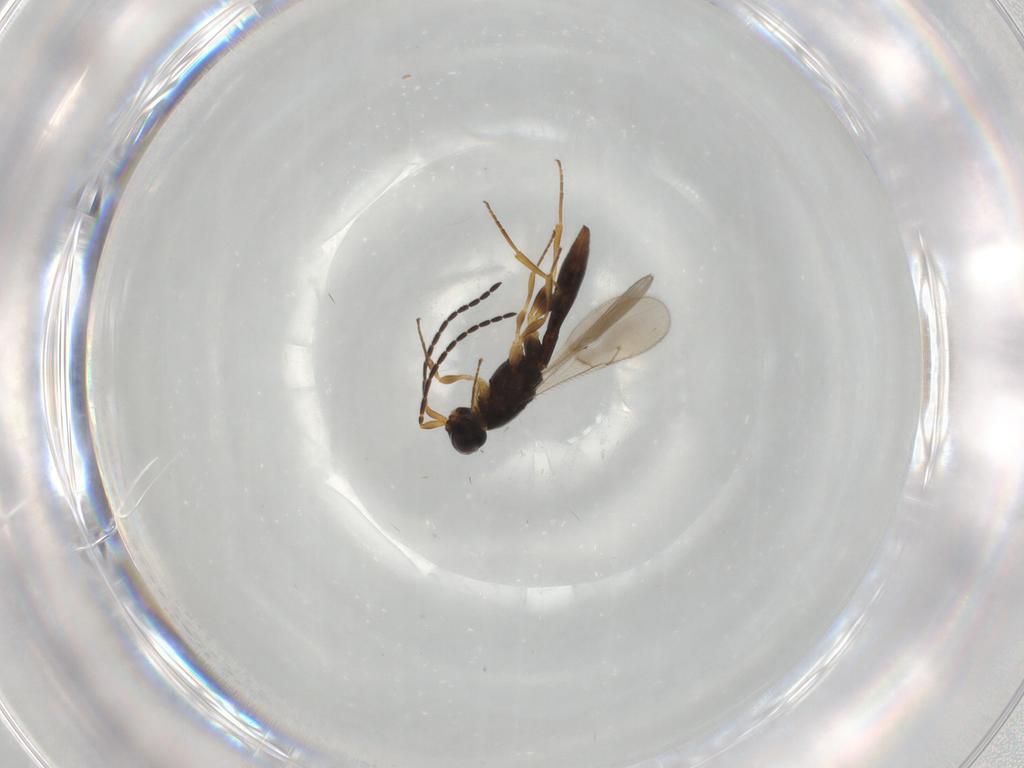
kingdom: Animalia
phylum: Arthropoda
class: Insecta
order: Hymenoptera
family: Scelionidae
